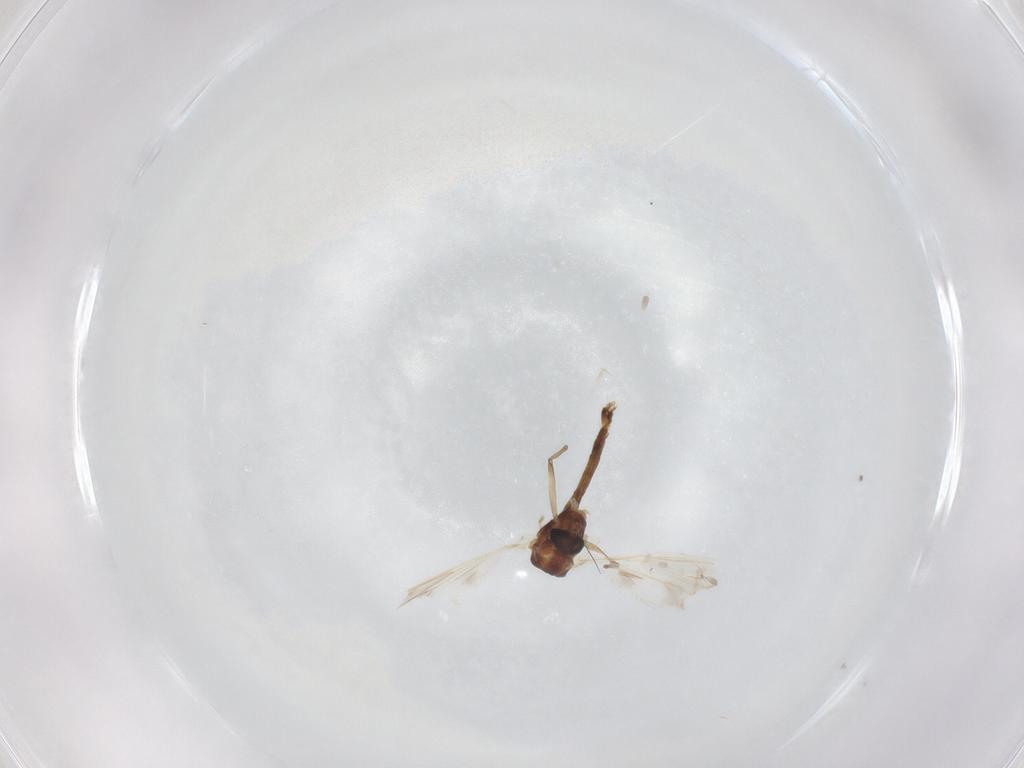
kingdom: Animalia
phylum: Arthropoda
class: Insecta
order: Diptera
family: Chironomidae
